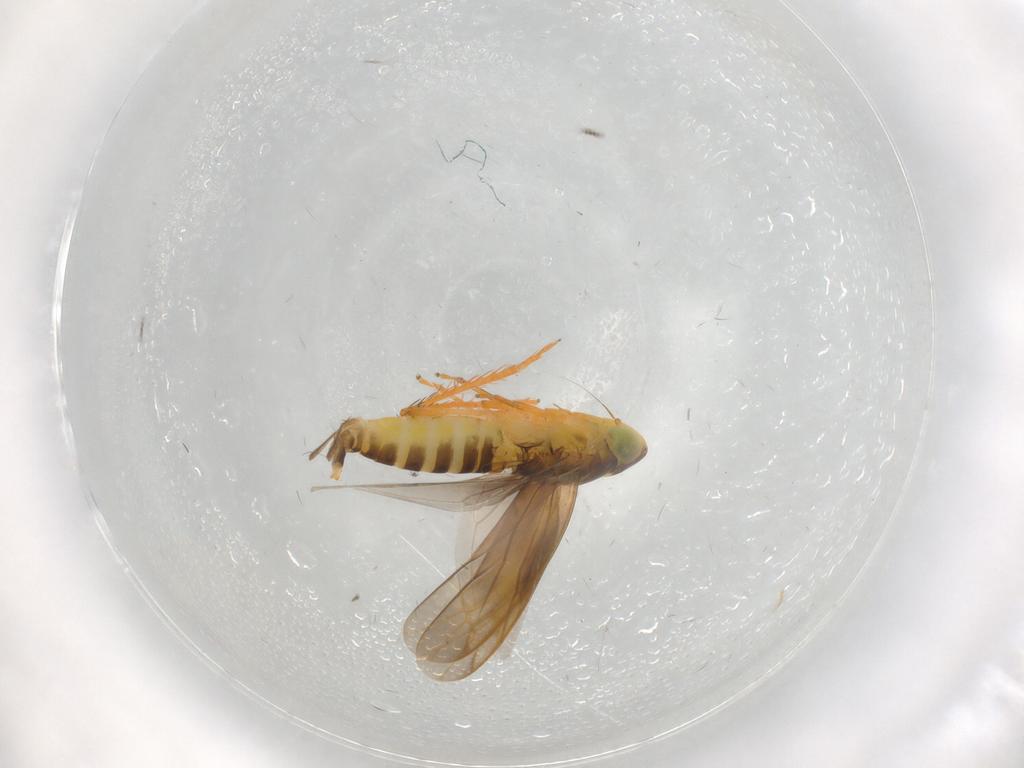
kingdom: Animalia
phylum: Arthropoda
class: Insecta
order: Hemiptera
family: Cicadellidae
